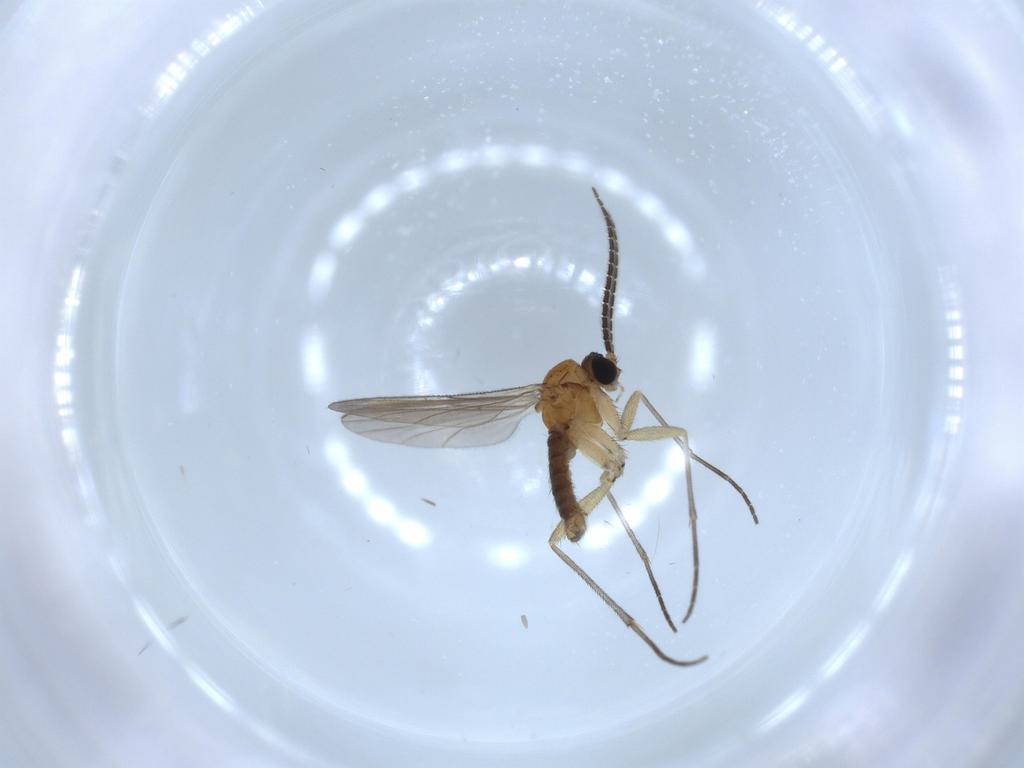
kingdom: Animalia
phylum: Arthropoda
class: Insecta
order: Diptera
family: Sciaridae
